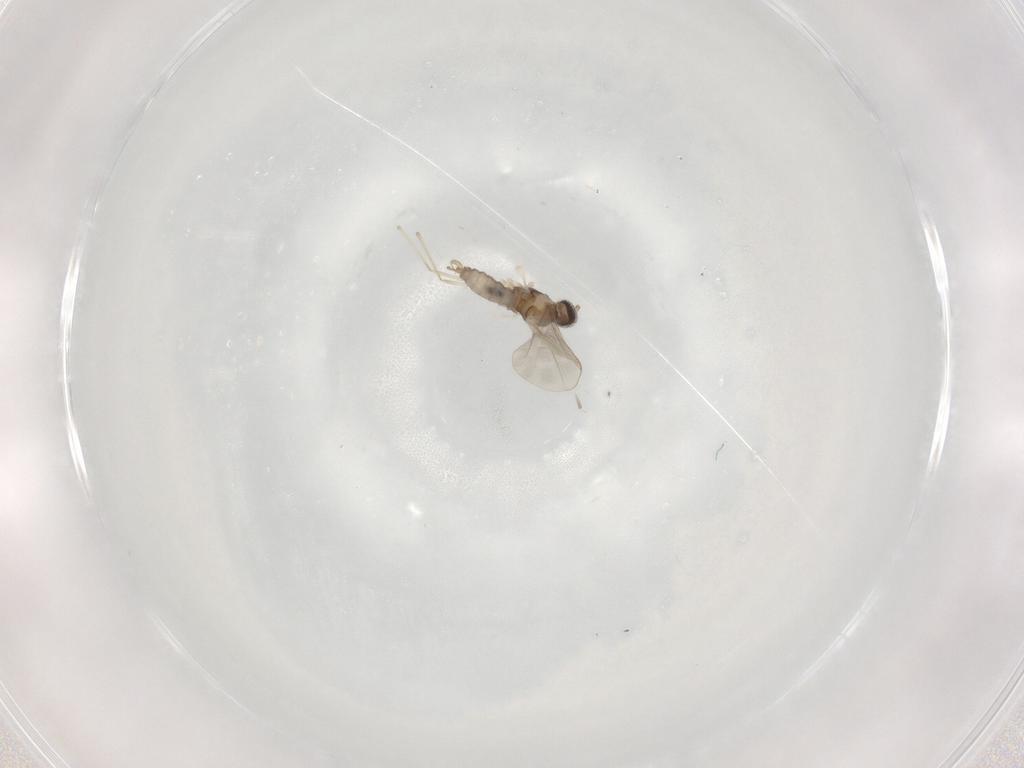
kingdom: Animalia
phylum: Arthropoda
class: Insecta
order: Diptera
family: Cecidomyiidae
